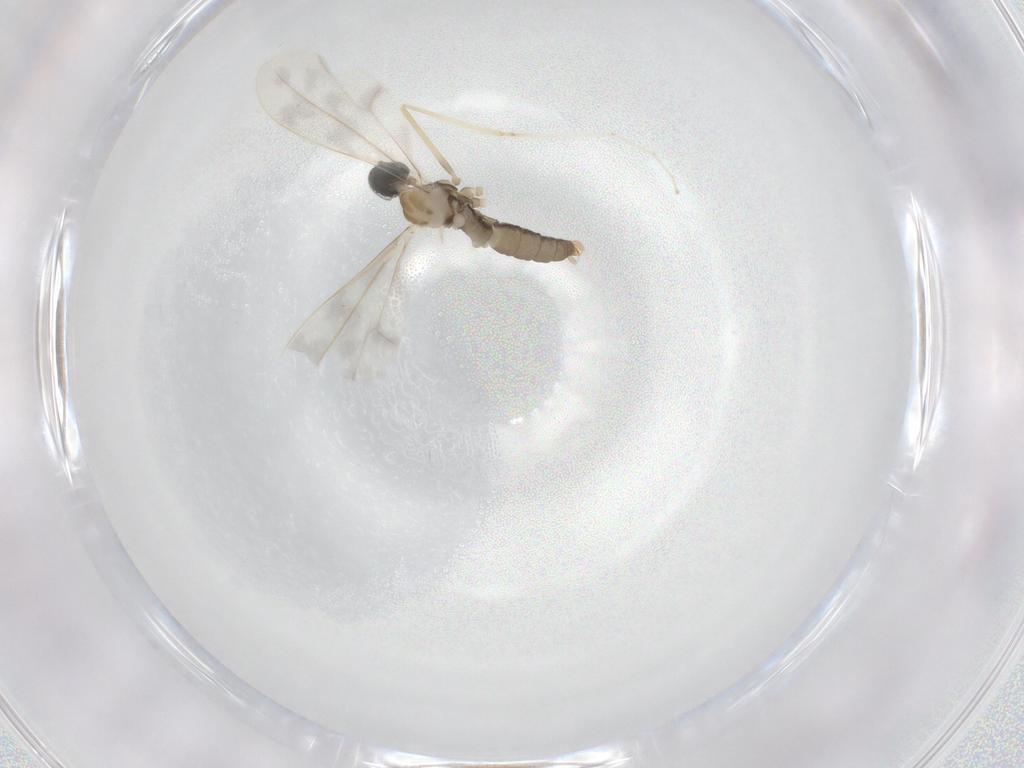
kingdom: Animalia
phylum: Arthropoda
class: Insecta
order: Diptera
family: Cecidomyiidae
